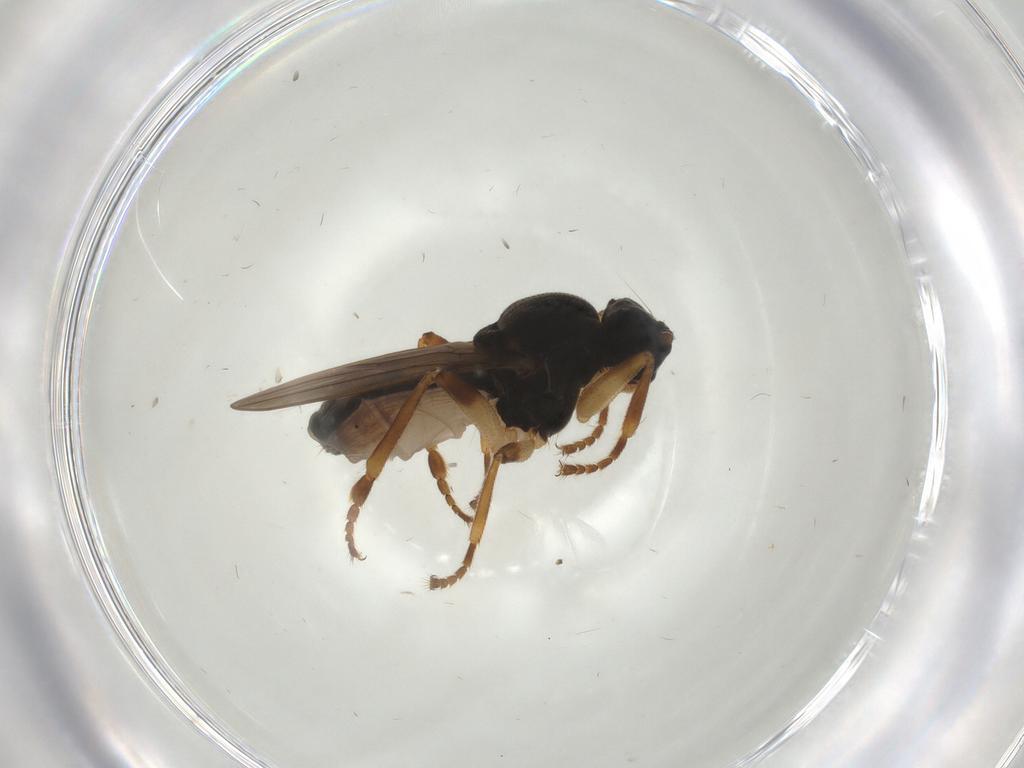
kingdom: Animalia
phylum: Arthropoda
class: Insecta
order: Diptera
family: Sphaeroceridae
